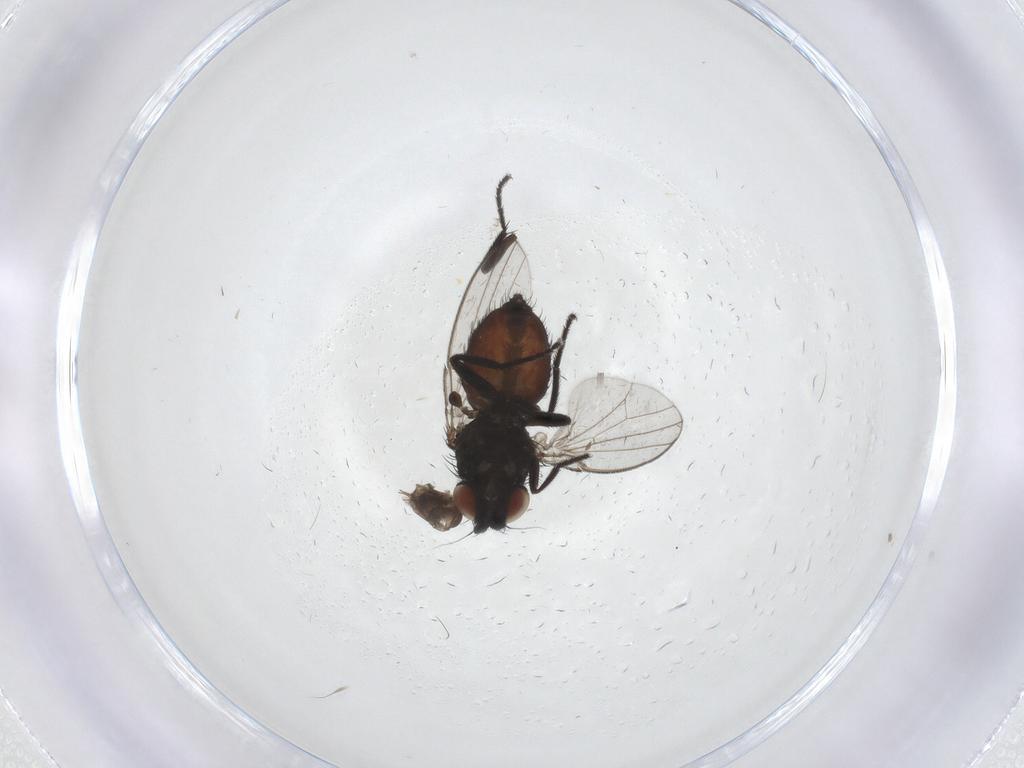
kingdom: Animalia
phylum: Arthropoda
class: Insecta
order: Diptera
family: Milichiidae
